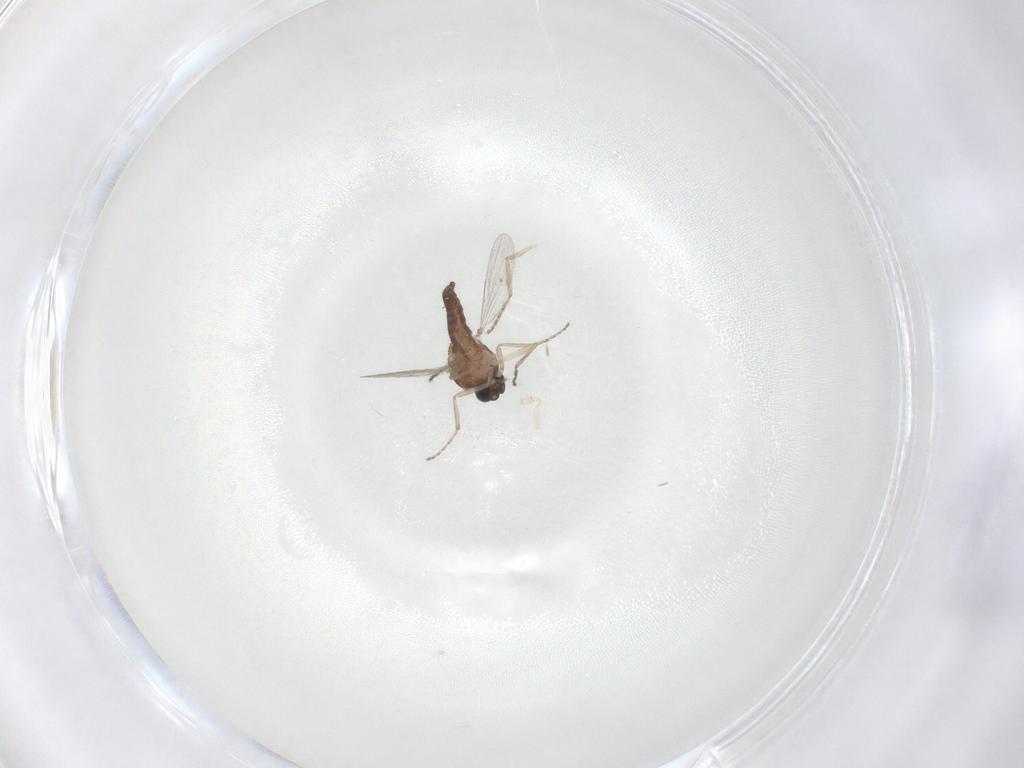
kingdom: Animalia
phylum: Arthropoda
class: Insecta
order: Diptera
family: Ceratopogonidae
